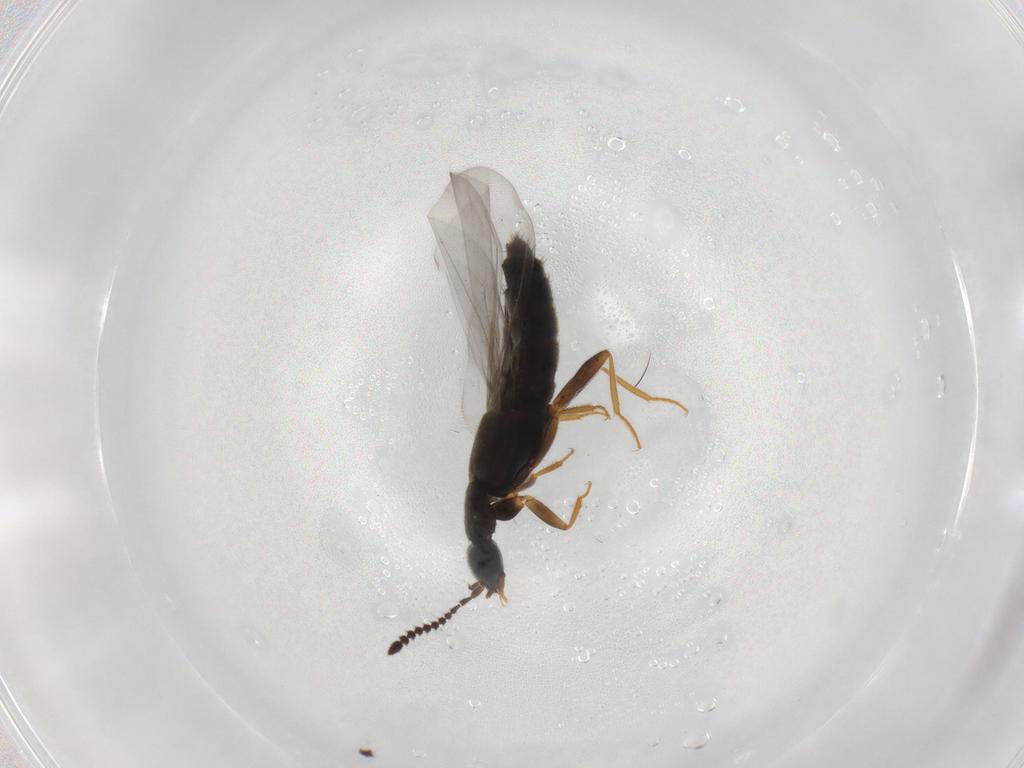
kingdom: Animalia
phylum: Arthropoda
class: Insecta
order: Coleoptera
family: Staphylinidae
